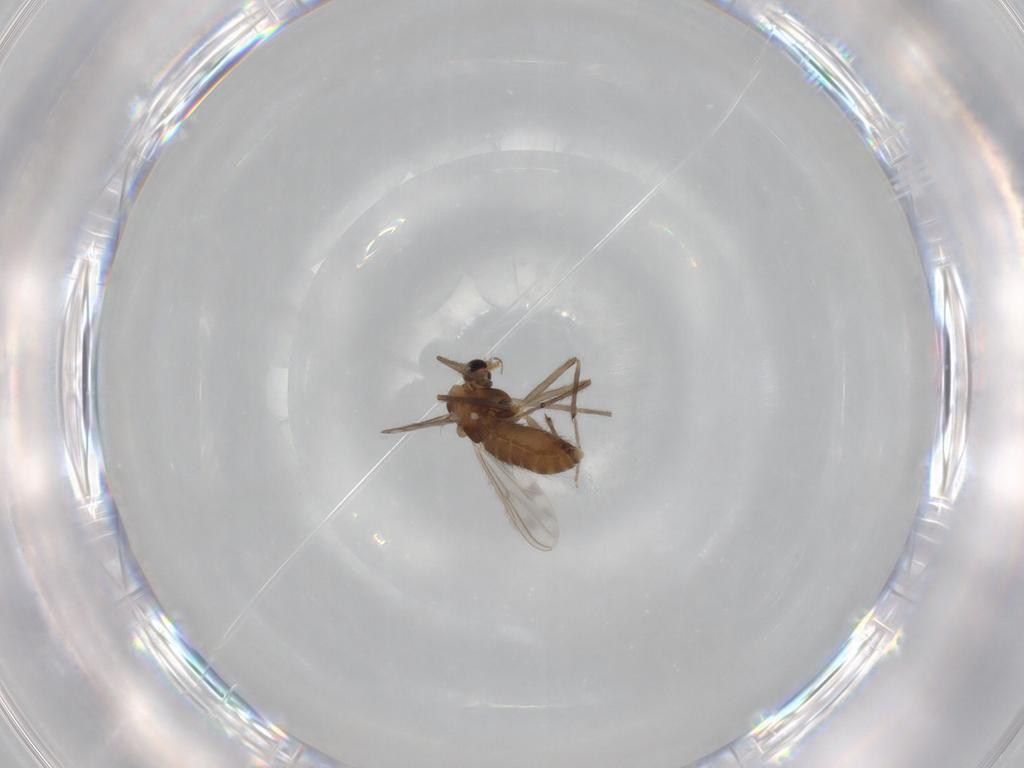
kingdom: Animalia
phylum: Arthropoda
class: Insecta
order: Diptera
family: Chironomidae
